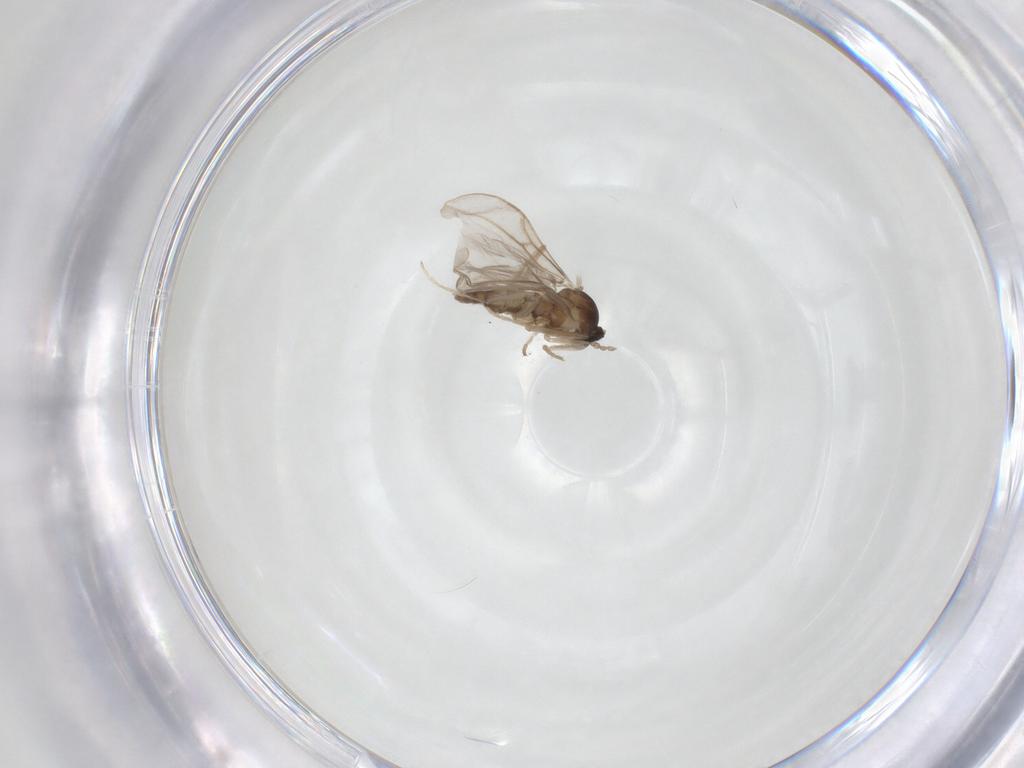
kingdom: Animalia
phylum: Arthropoda
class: Insecta
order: Diptera
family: Cecidomyiidae
